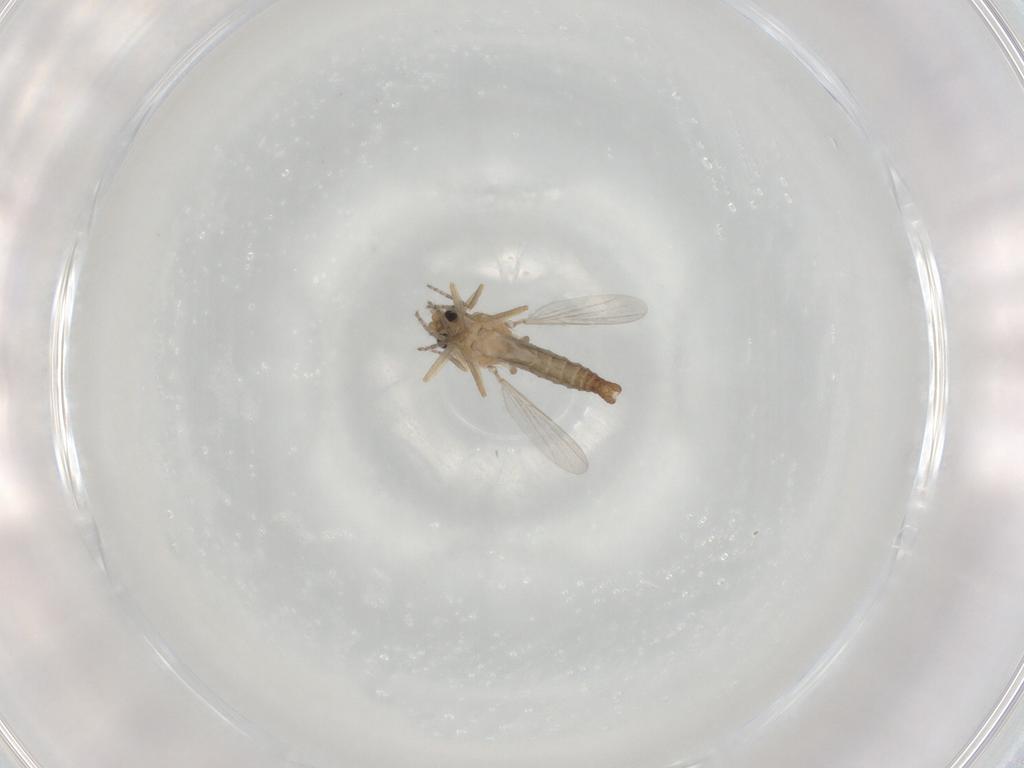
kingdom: Animalia
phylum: Arthropoda
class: Insecta
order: Diptera
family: Ceratopogonidae
